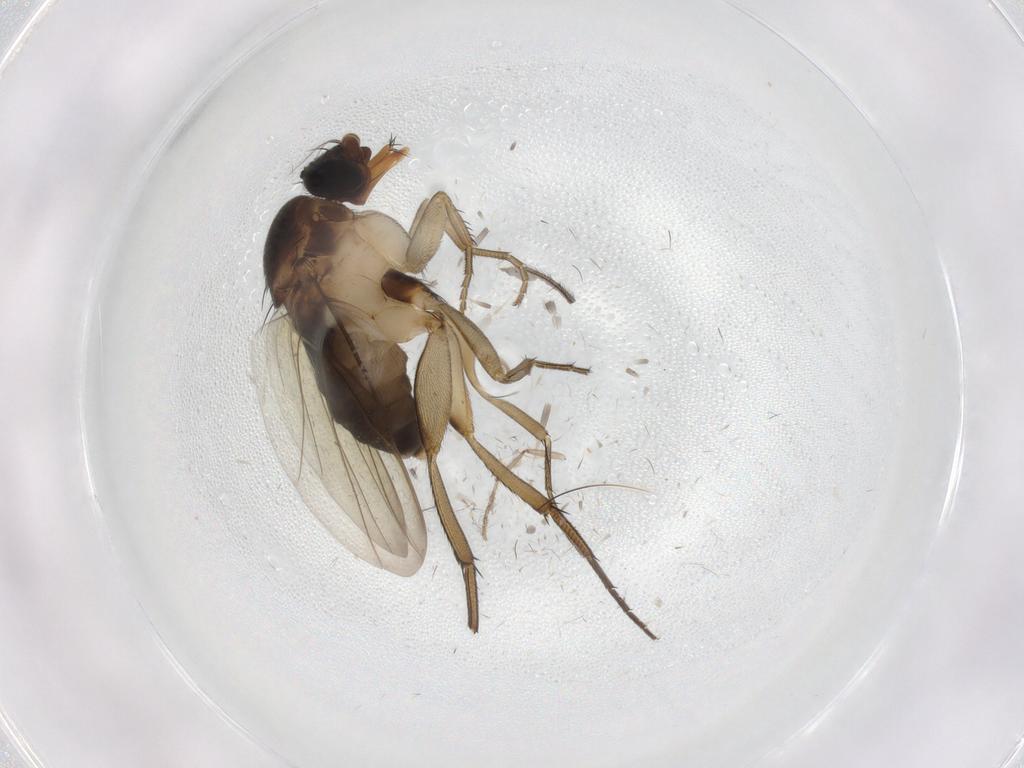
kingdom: Animalia
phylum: Arthropoda
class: Insecta
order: Diptera
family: Phoridae
